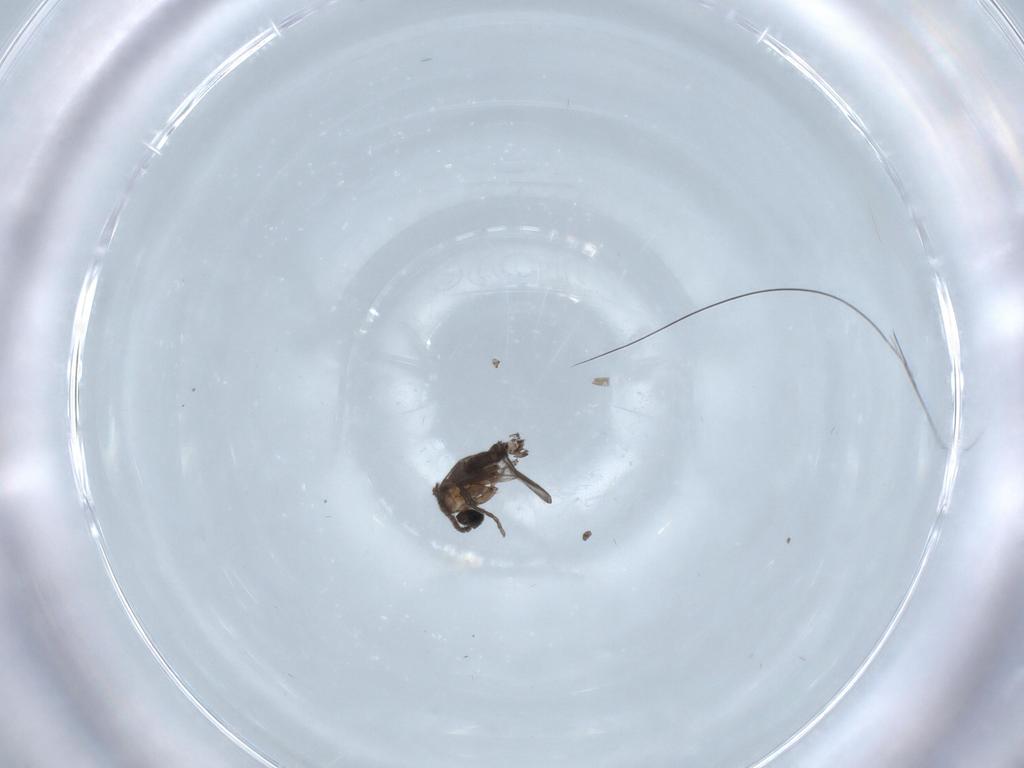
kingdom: Animalia
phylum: Arthropoda
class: Insecta
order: Diptera
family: Sciaridae
